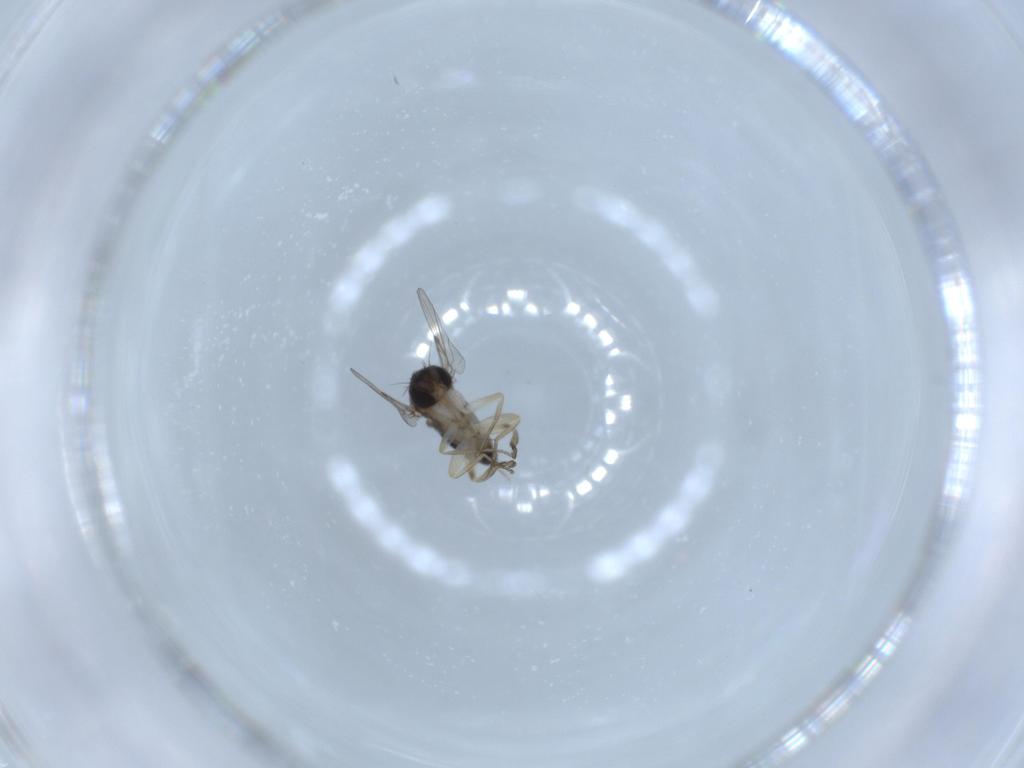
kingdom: Animalia
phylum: Arthropoda
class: Insecta
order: Diptera
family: Phoridae
